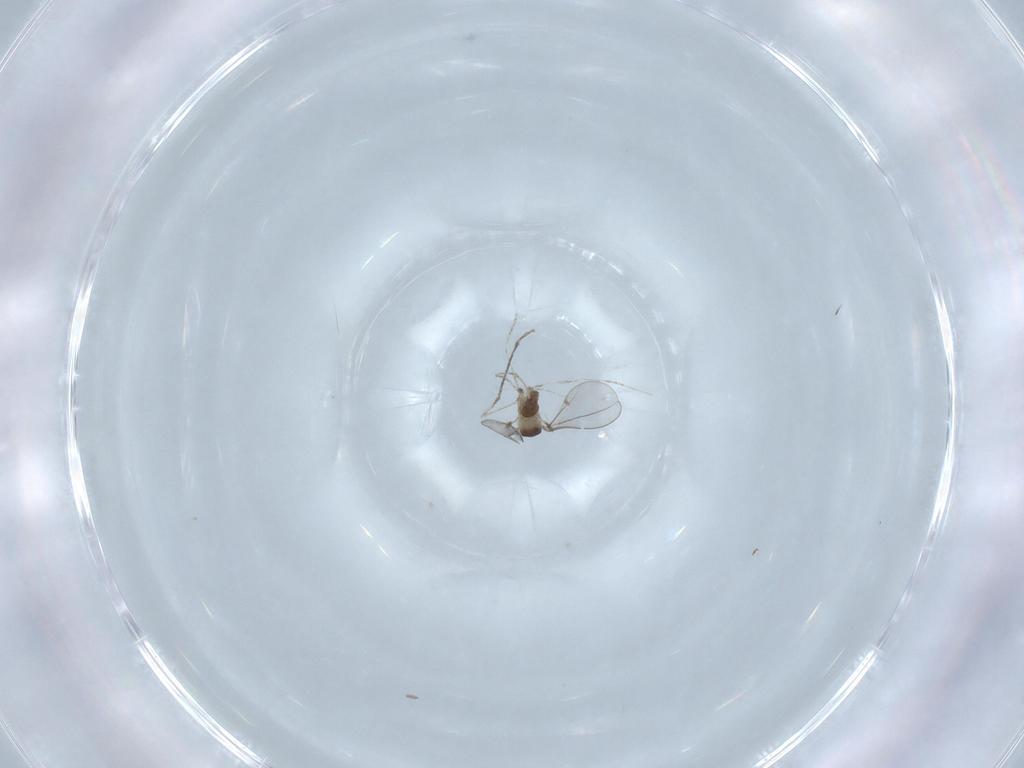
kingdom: Animalia
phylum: Arthropoda
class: Insecta
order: Diptera
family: Cecidomyiidae
